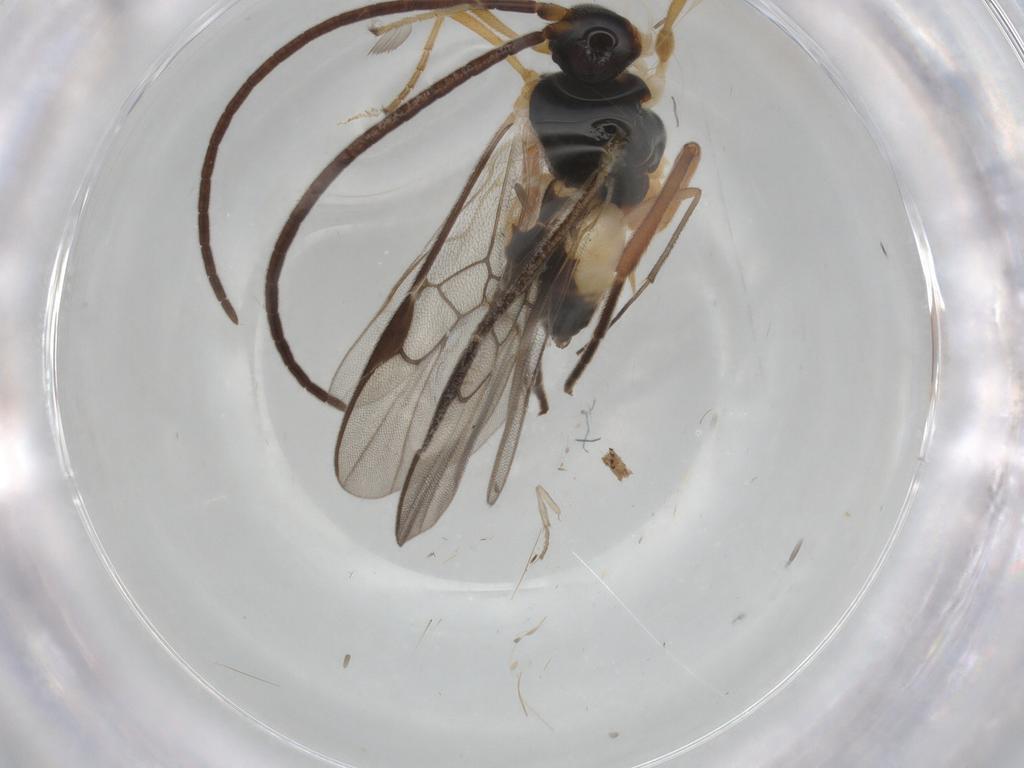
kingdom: Animalia
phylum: Arthropoda
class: Insecta
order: Hymenoptera
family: Braconidae
